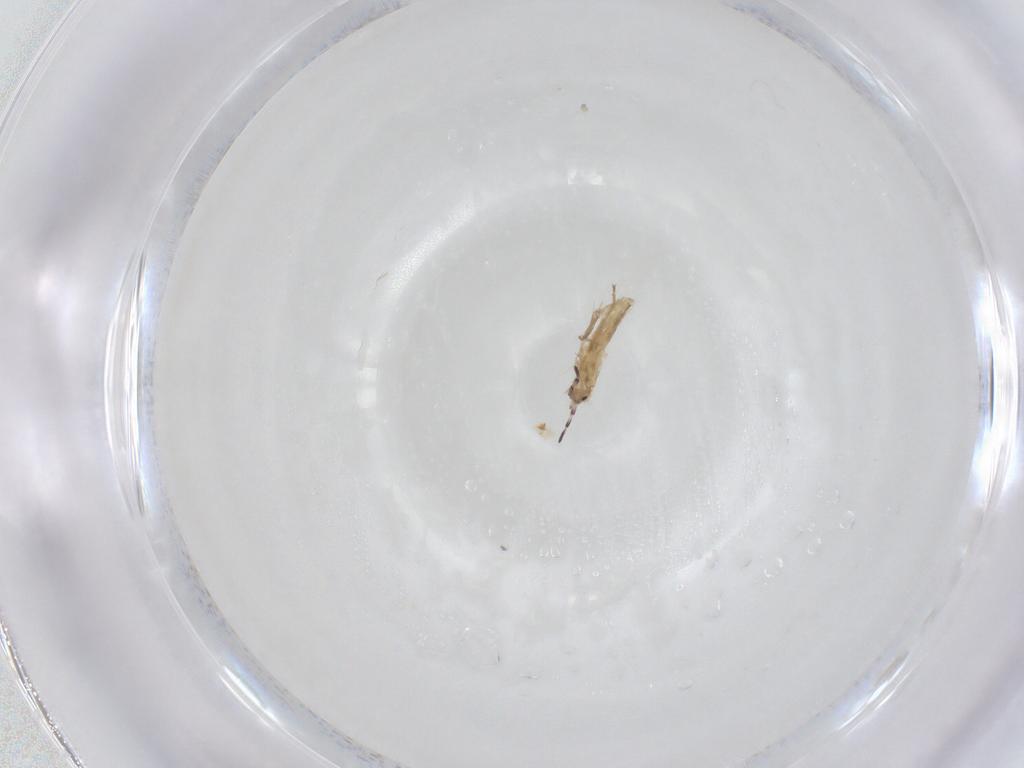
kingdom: Animalia
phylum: Arthropoda
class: Collembola
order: Entomobryomorpha
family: Entomobryidae
